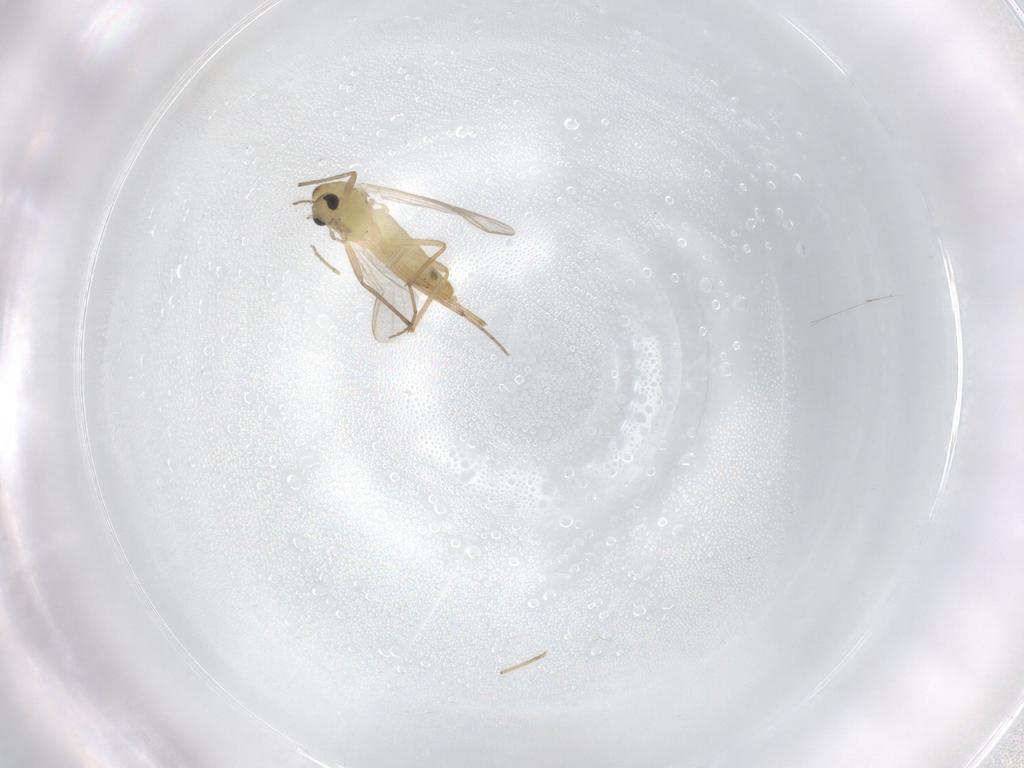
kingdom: Animalia
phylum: Arthropoda
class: Insecta
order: Diptera
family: Chironomidae
